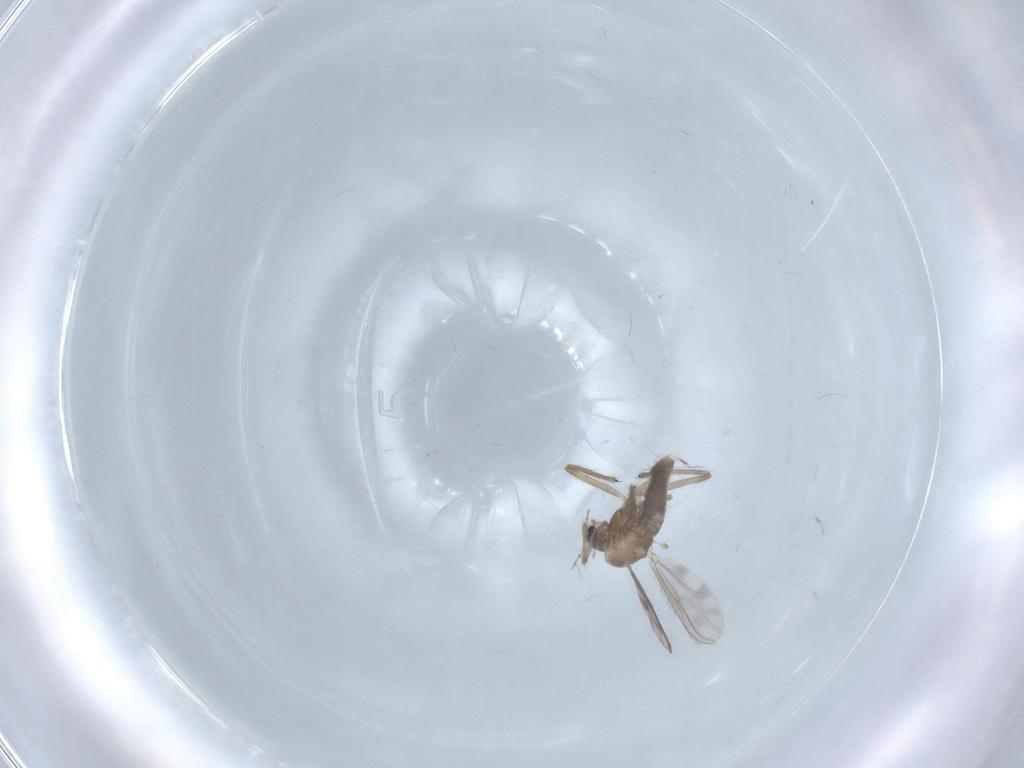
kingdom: Animalia
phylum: Arthropoda
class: Insecta
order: Diptera
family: Chironomidae
